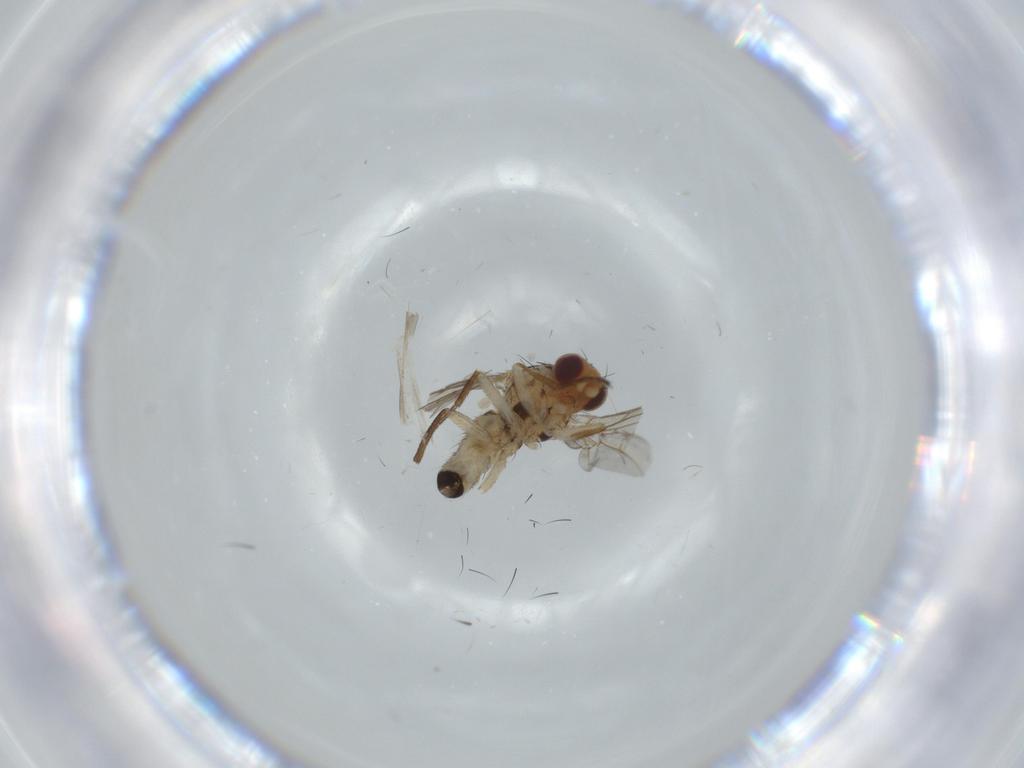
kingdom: Animalia
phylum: Arthropoda
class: Insecta
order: Diptera
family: Agromyzidae
